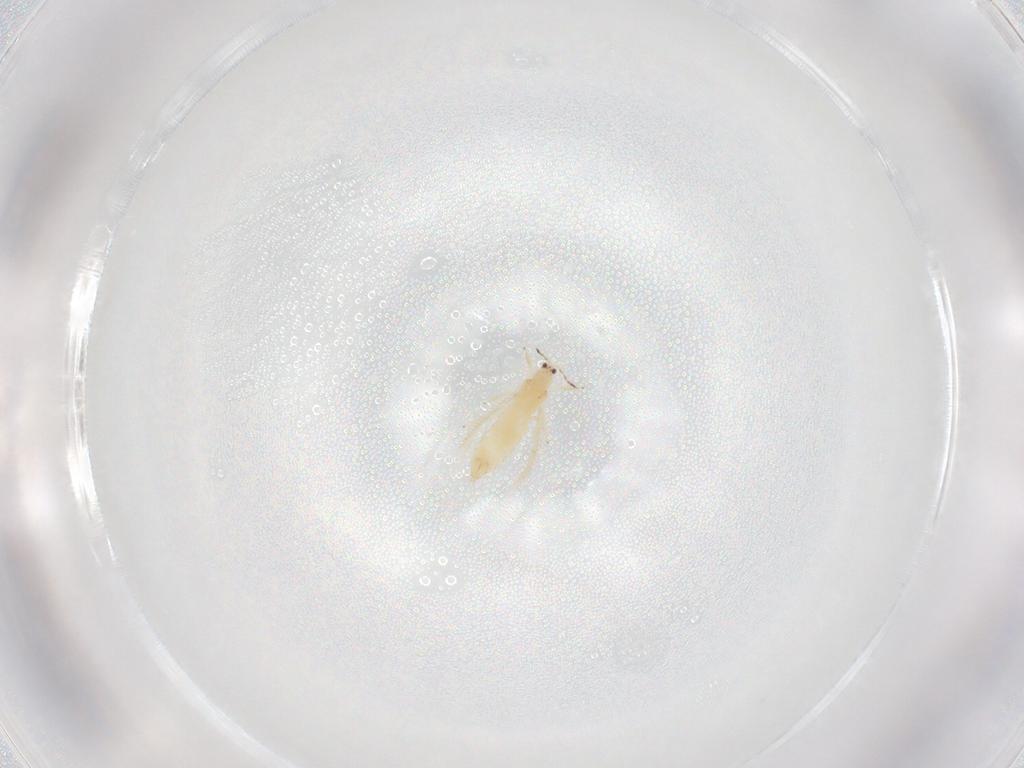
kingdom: Animalia
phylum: Arthropoda
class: Insecta
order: Thysanoptera
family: Thripidae
